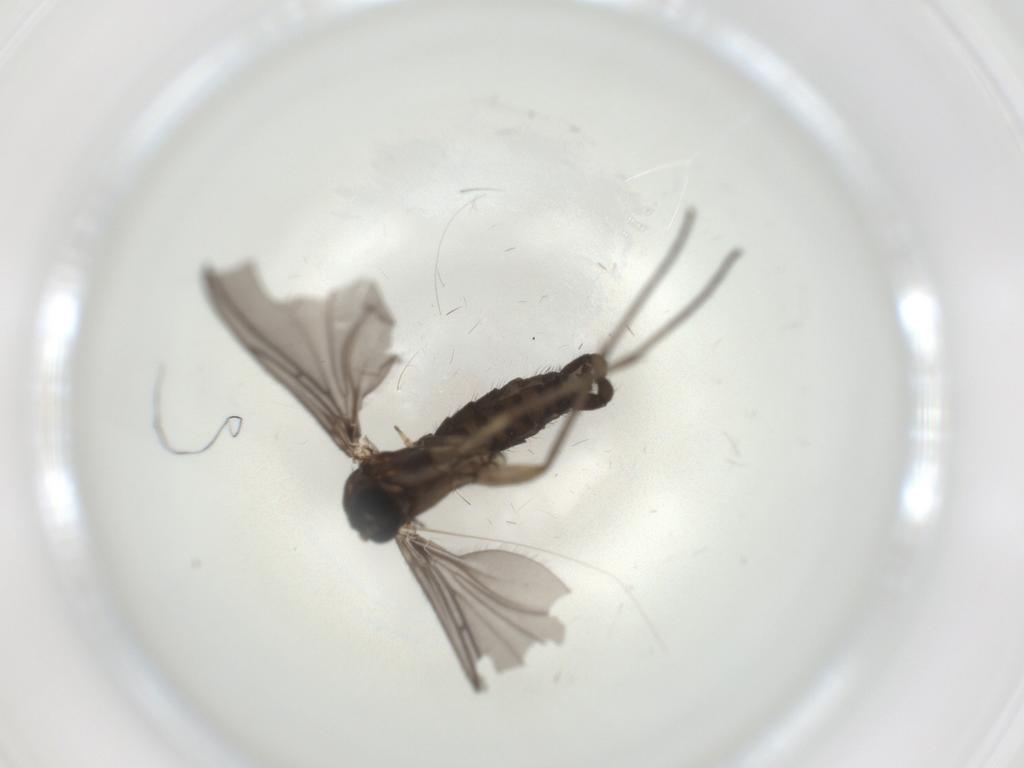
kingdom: Animalia
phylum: Arthropoda
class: Insecta
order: Diptera
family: Sciaridae
